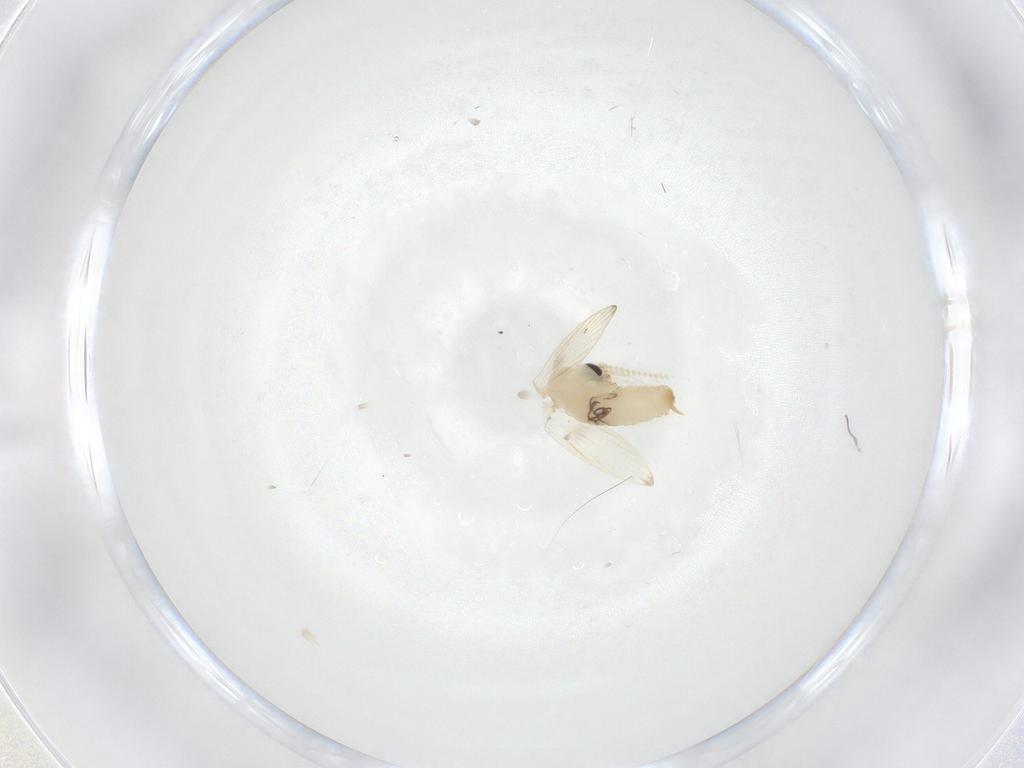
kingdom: Animalia
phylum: Arthropoda
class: Insecta
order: Diptera
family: Psychodidae
